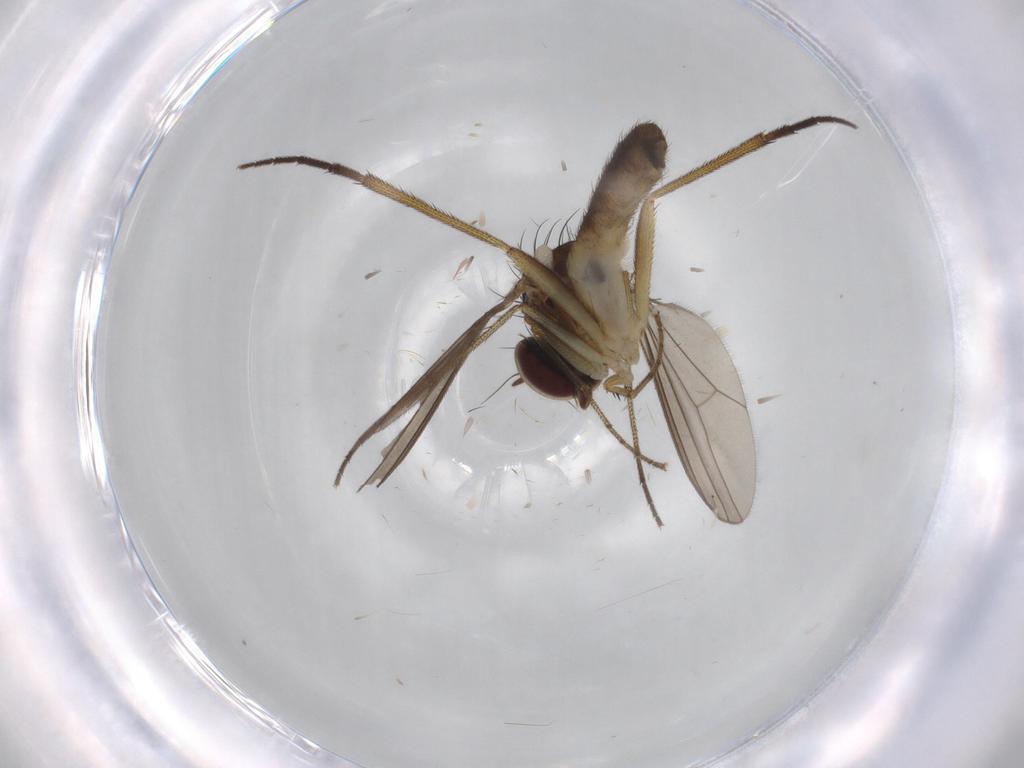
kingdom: Animalia
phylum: Arthropoda
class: Insecta
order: Diptera
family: Dolichopodidae
